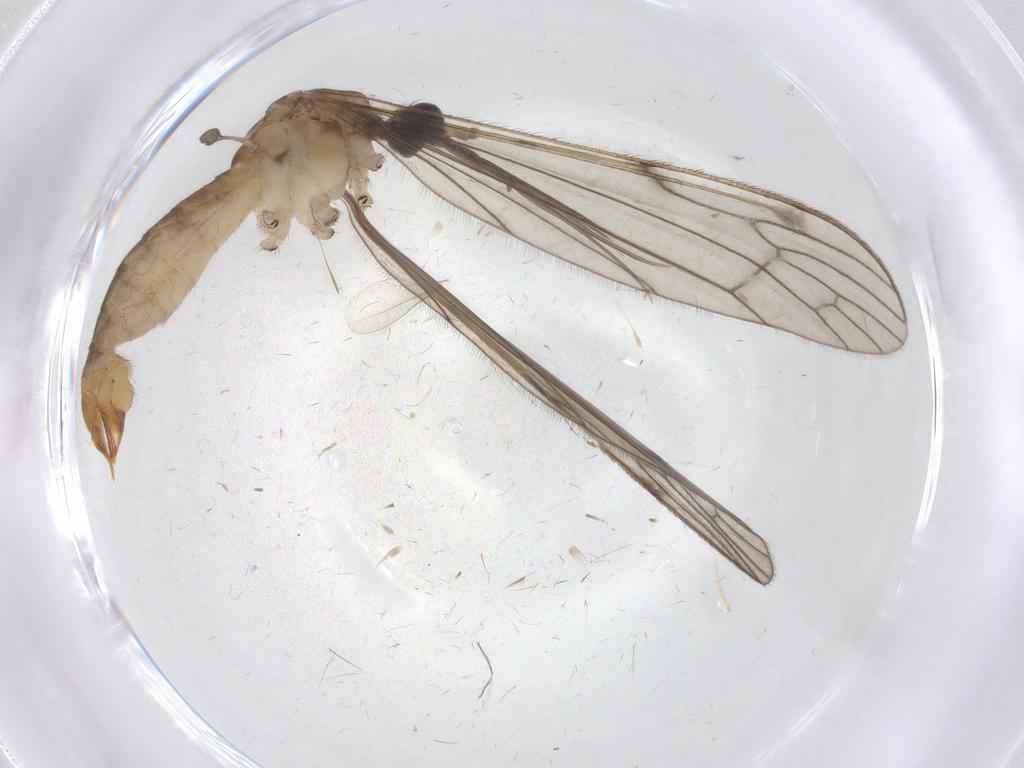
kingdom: Animalia
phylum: Arthropoda
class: Insecta
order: Diptera
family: Limoniidae
